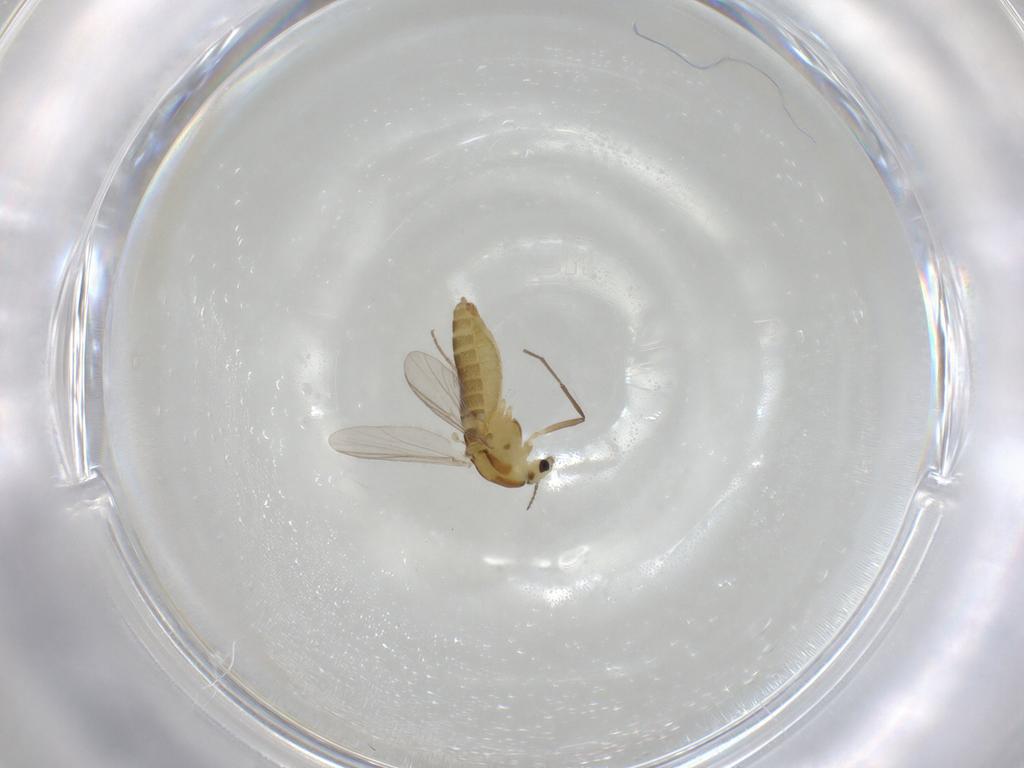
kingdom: Animalia
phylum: Arthropoda
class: Insecta
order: Diptera
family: Chironomidae
